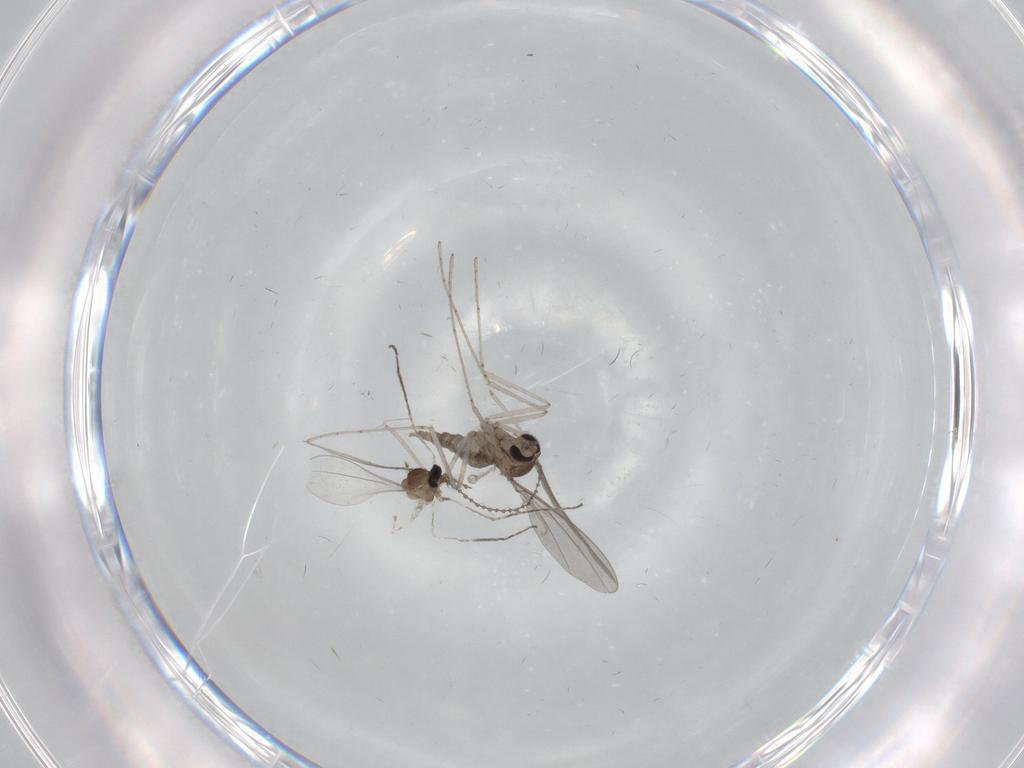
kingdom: Animalia
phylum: Arthropoda
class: Insecta
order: Diptera
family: Cecidomyiidae
